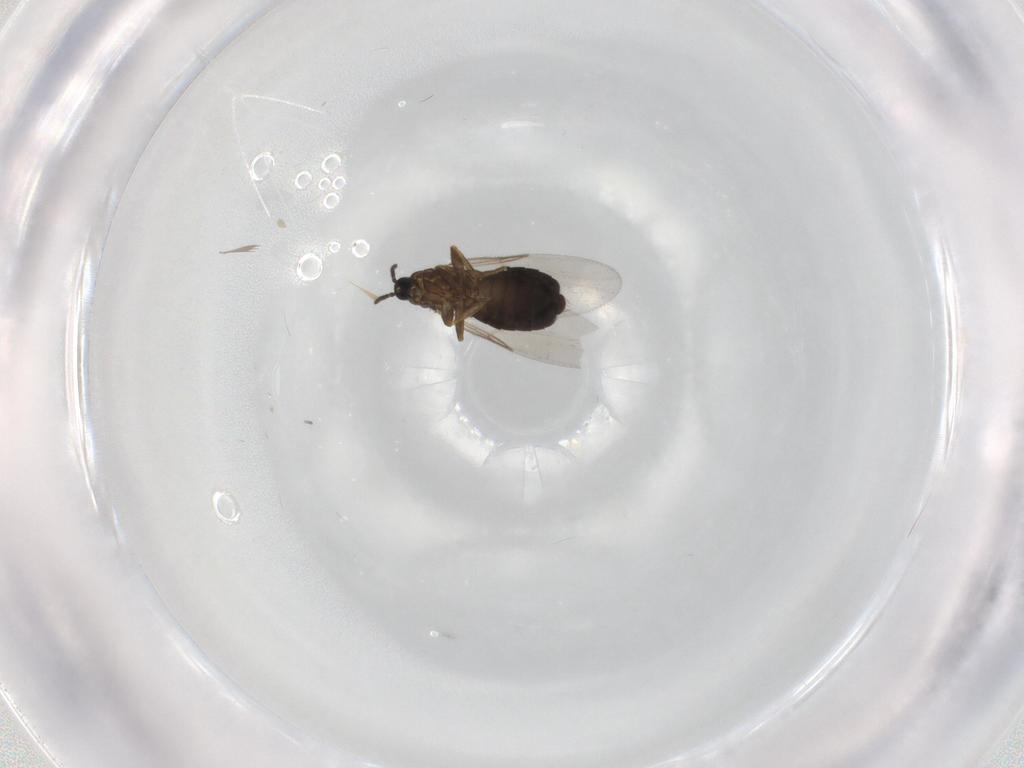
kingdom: Animalia
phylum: Arthropoda
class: Insecta
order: Diptera
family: Scatopsidae
